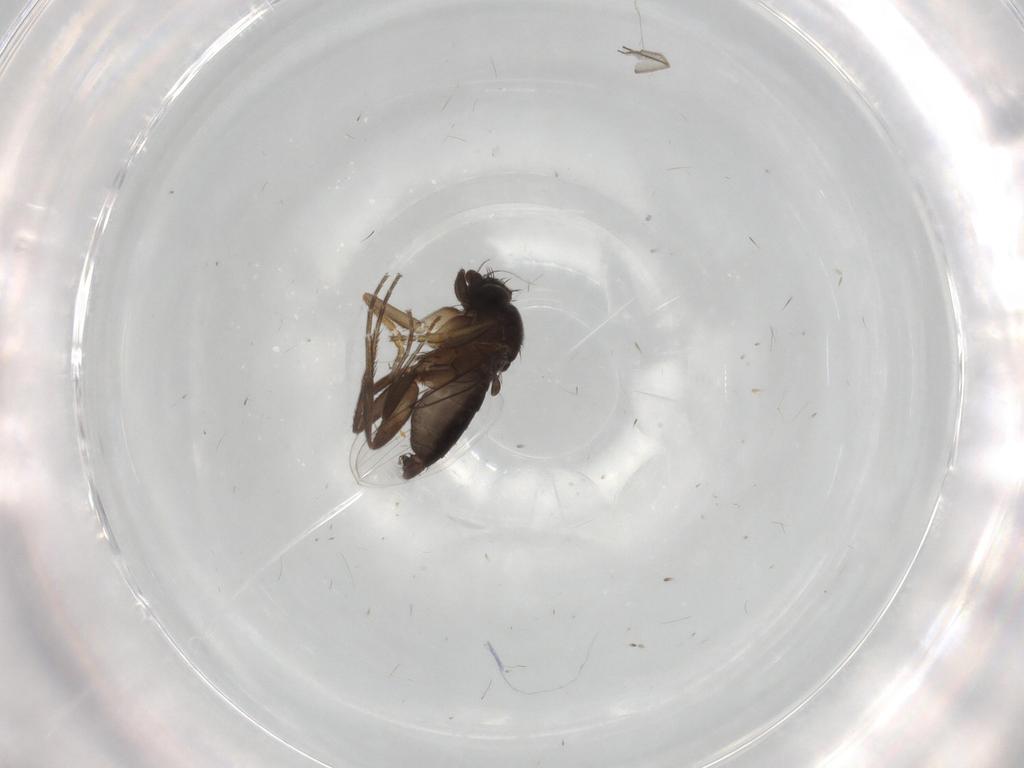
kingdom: Animalia
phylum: Arthropoda
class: Insecta
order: Diptera
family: Phoridae
